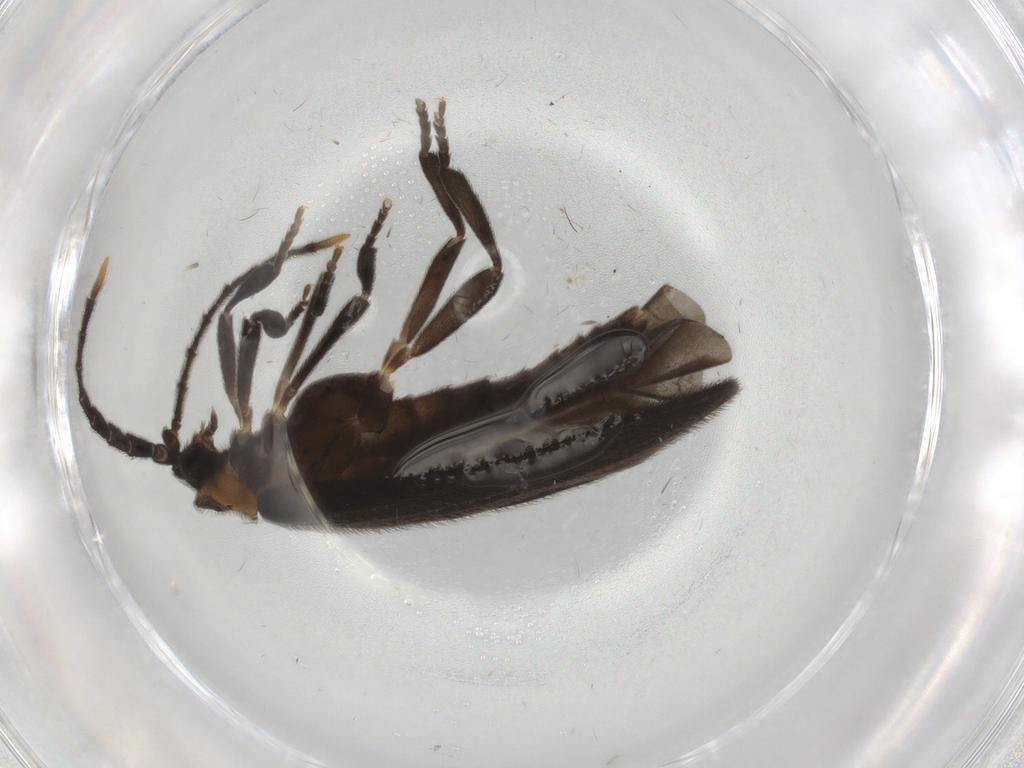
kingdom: Animalia
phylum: Arthropoda
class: Insecta
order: Coleoptera
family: Lycidae
